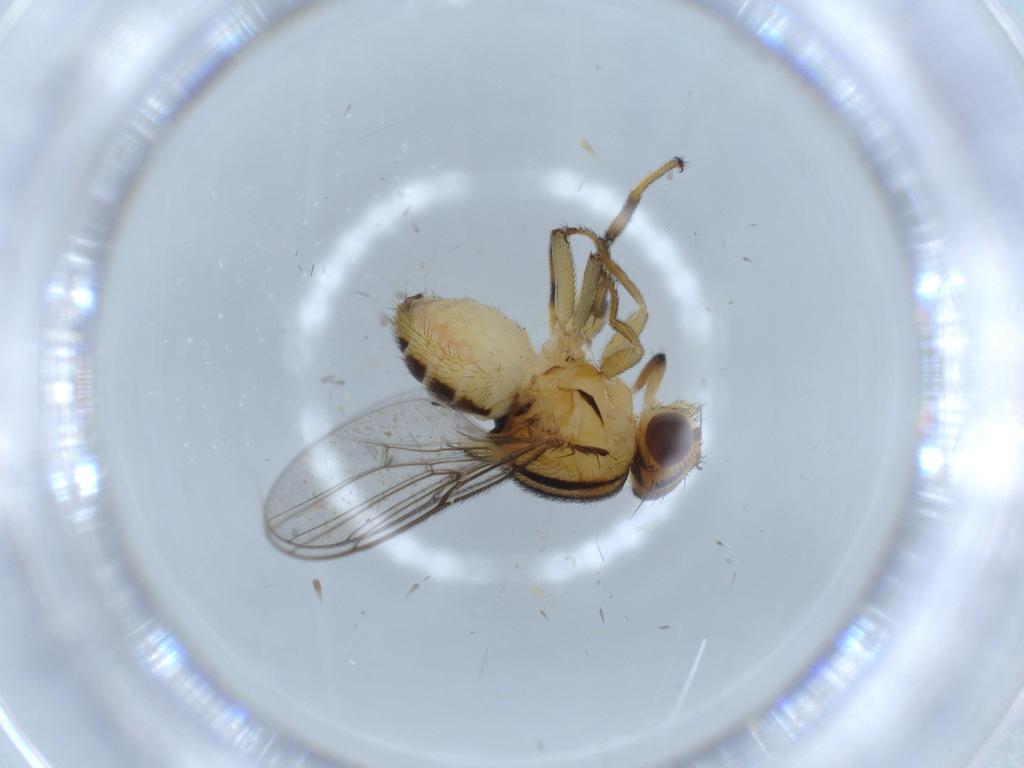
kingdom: Animalia
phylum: Arthropoda
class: Insecta
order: Diptera
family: Chloropidae
